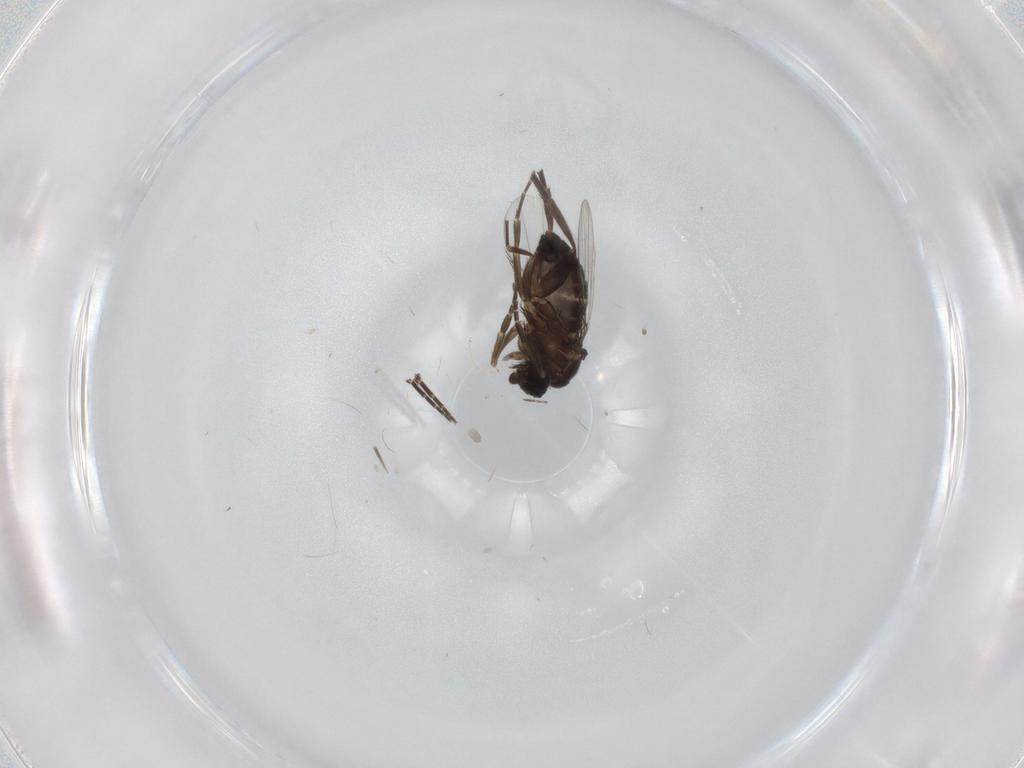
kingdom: Animalia
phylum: Arthropoda
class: Insecta
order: Diptera
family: Phoridae
